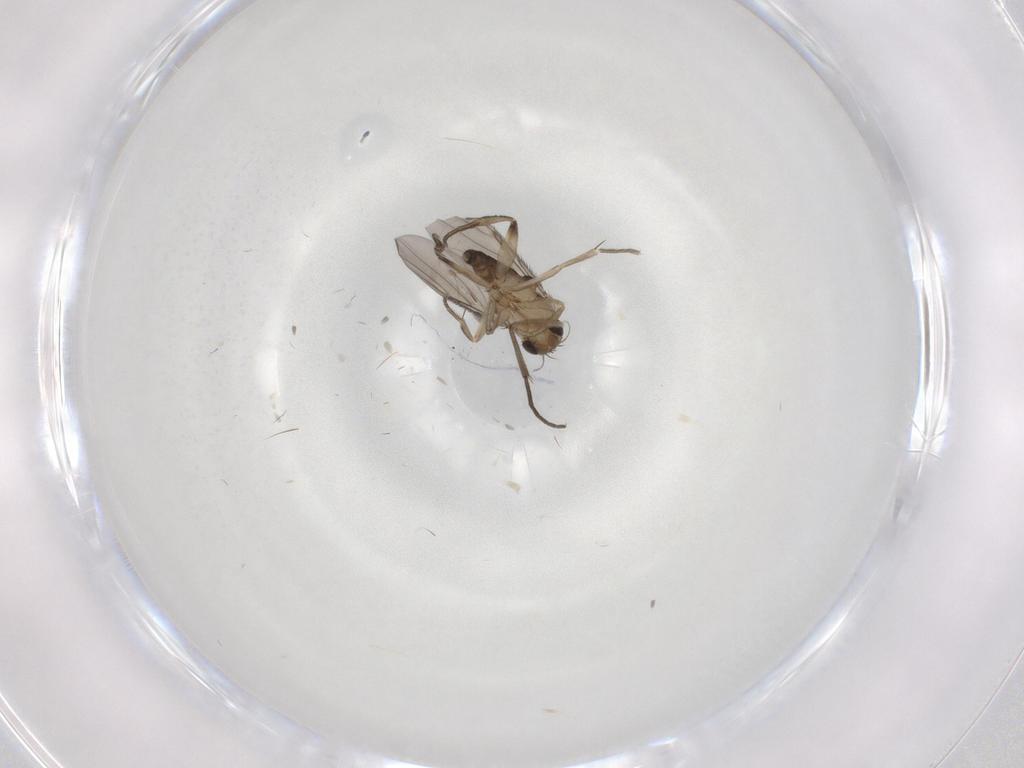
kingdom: Animalia
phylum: Arthropoda
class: Insecta
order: Diptera
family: Phoridae
